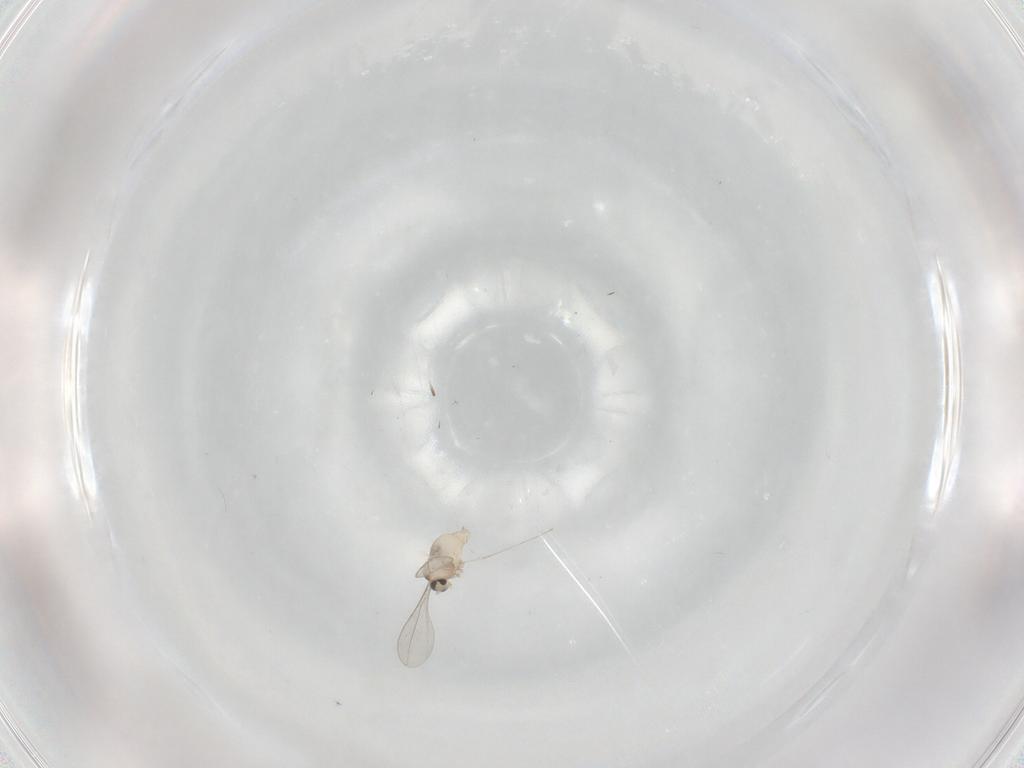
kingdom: Animalia
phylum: Arthropoda
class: Insecta
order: Diptera
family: Cecidomyiidae
